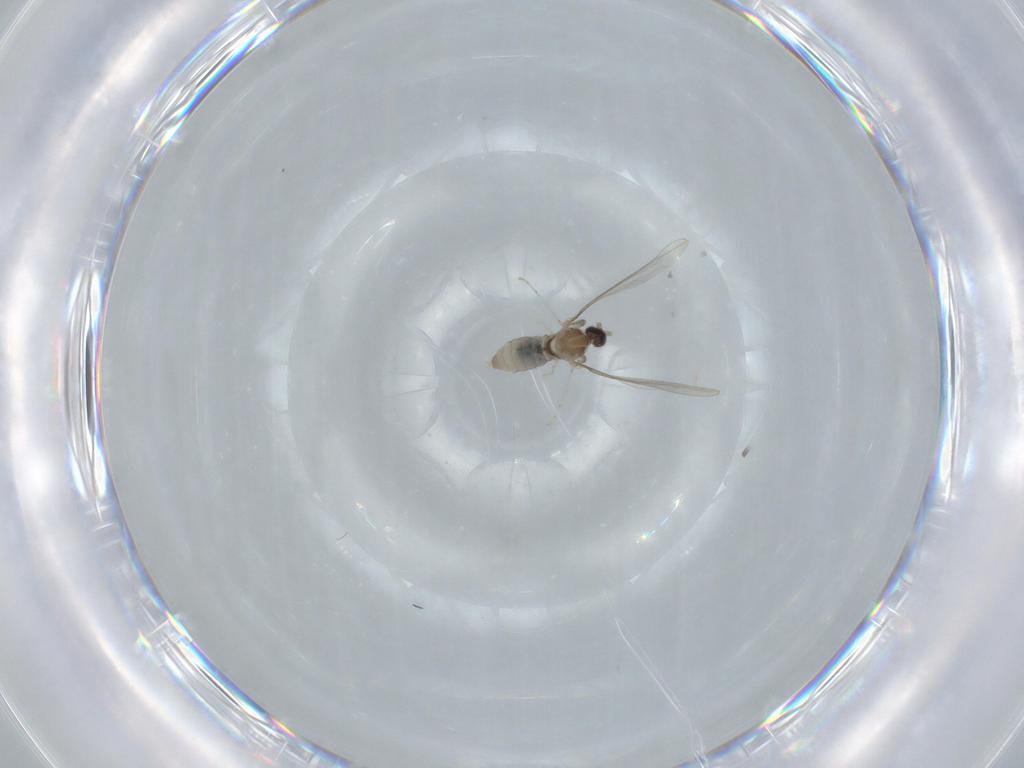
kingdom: Animalia
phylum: Arthropoda
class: Insecta
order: Diptera
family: Cecidomyiidae
